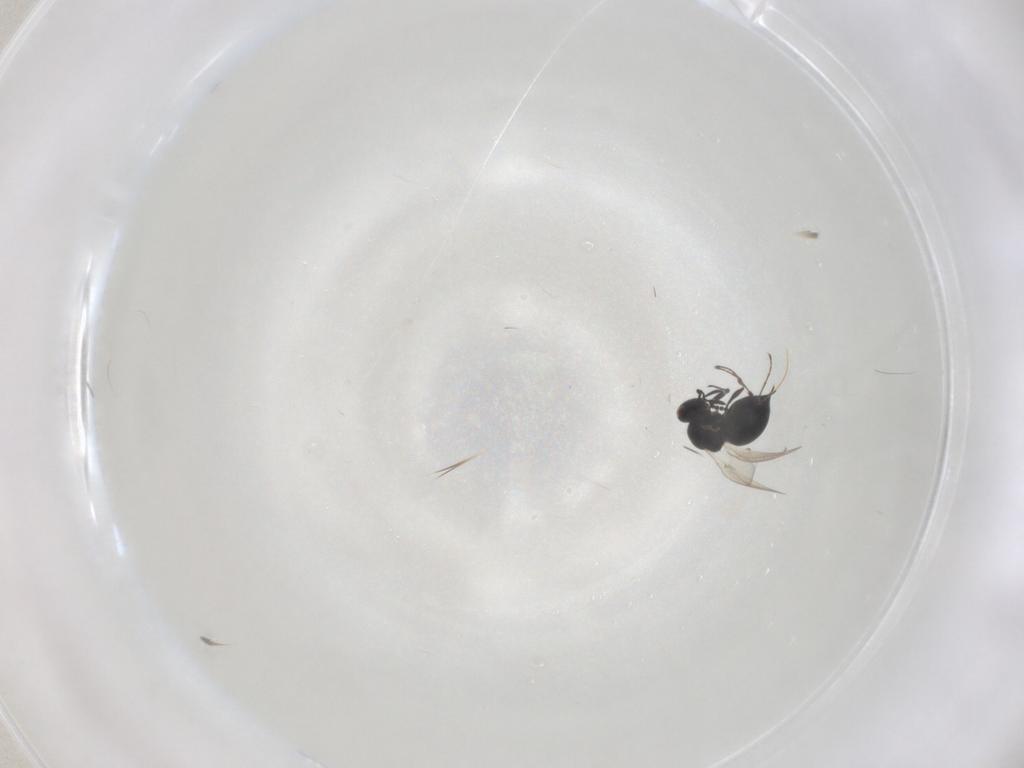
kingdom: Animalia
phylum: Arthropoda
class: Insecta
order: Hymenoptera
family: Platygastridae
